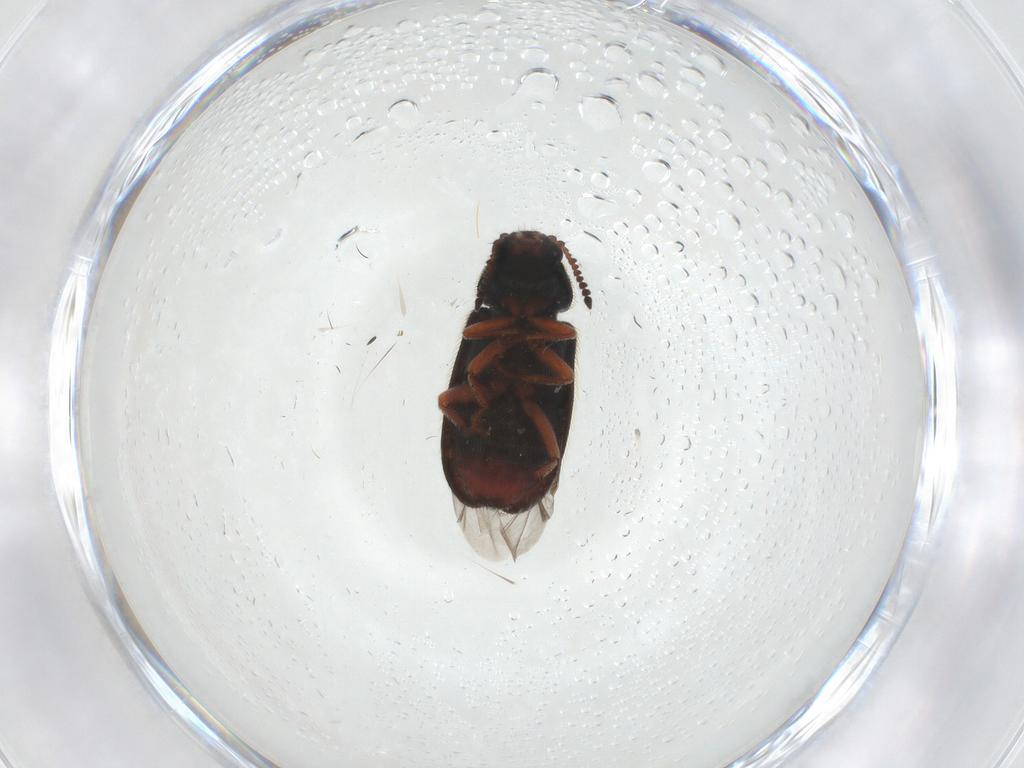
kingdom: Animalia
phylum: Arthropoda
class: Insecta
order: Coleoptera
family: Melyridae
